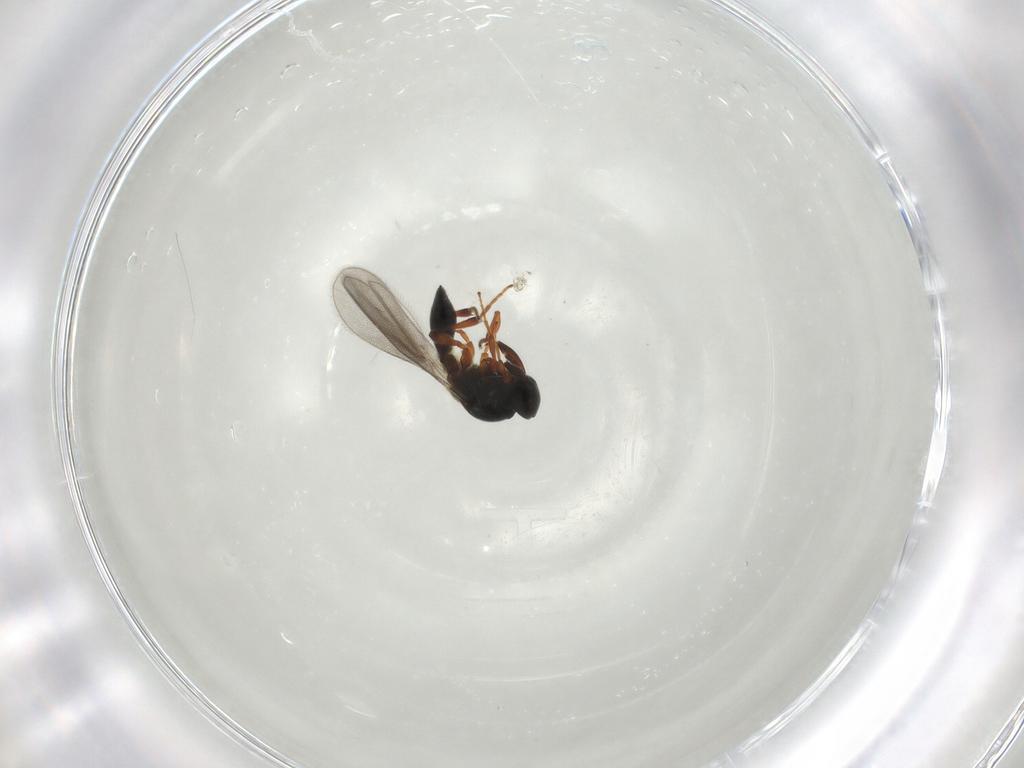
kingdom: Animalia
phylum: Arthropoda
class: Insecta
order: Hymenoptera
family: Platygastridae
